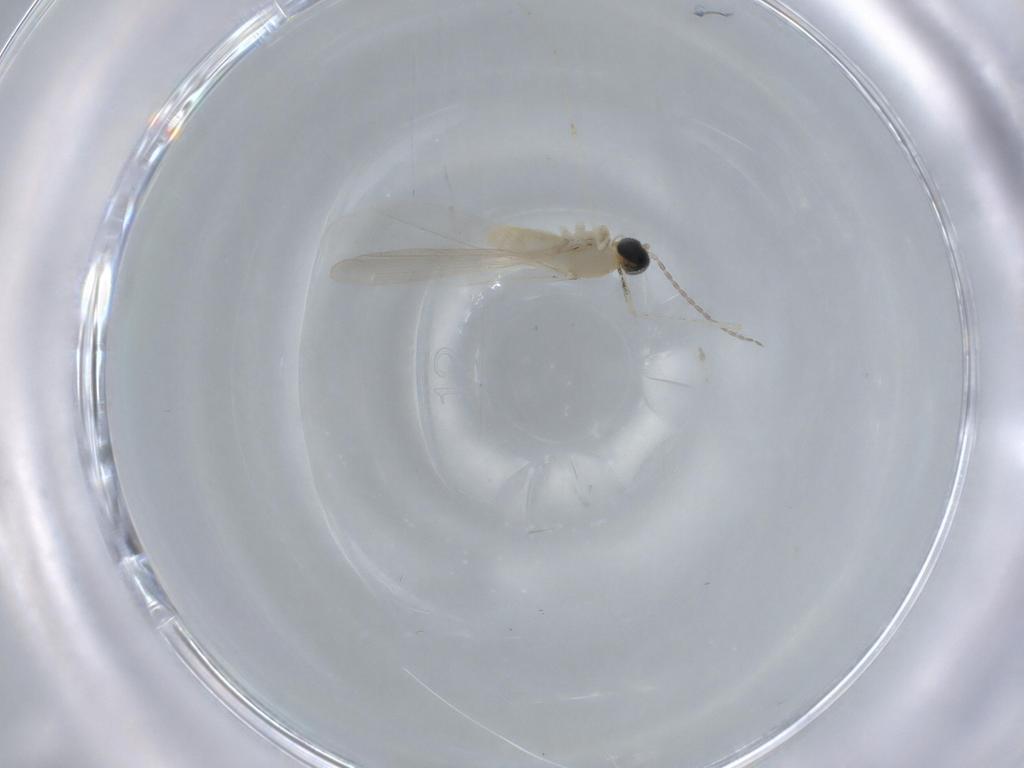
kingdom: Animalia
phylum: Arthropoda
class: Insecta
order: Diptera
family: Cecidomyiidae
